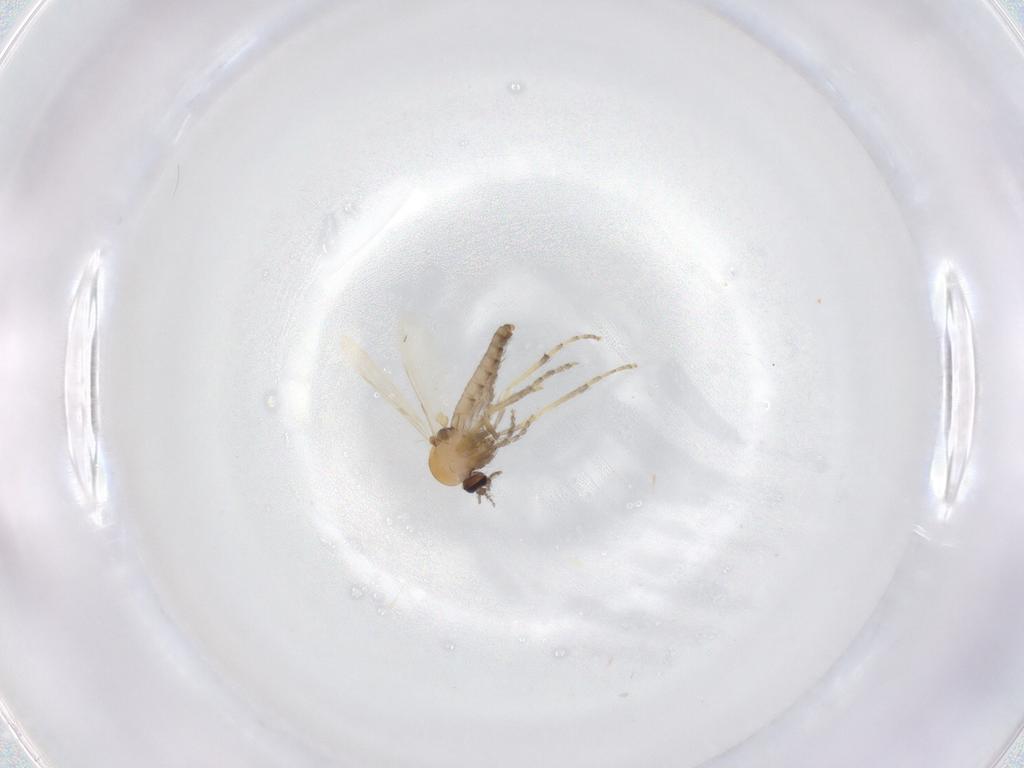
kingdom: Animalia
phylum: Arthropoda
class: Insecta
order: Diptera
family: Ceratopogonidae
